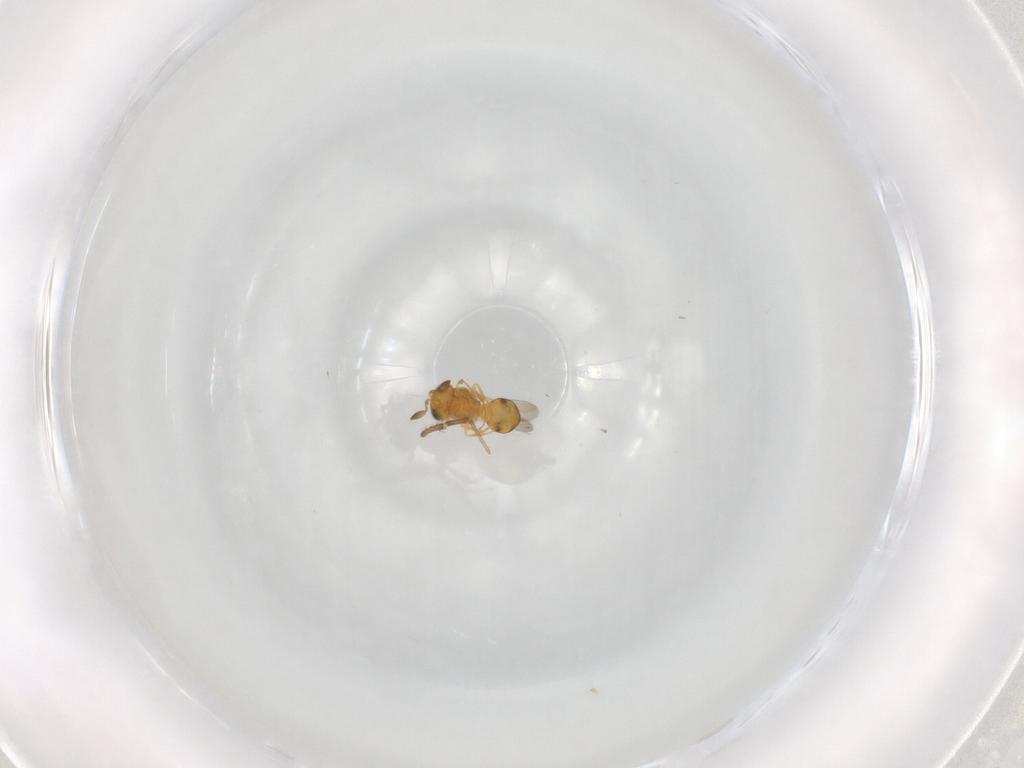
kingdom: Animalia
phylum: Arthropoda
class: Insecta
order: Hymenoptera
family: Scelionidae
